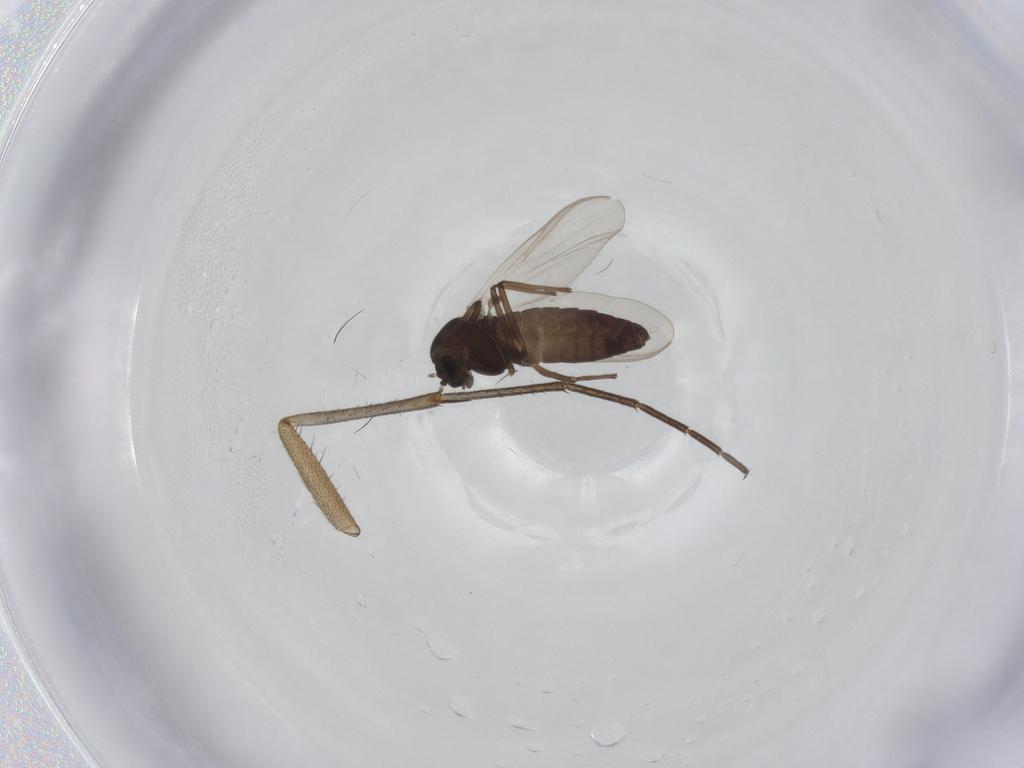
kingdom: Animalia
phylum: Arthropoda
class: Insecta
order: Diptera
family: Mycetophilidae
